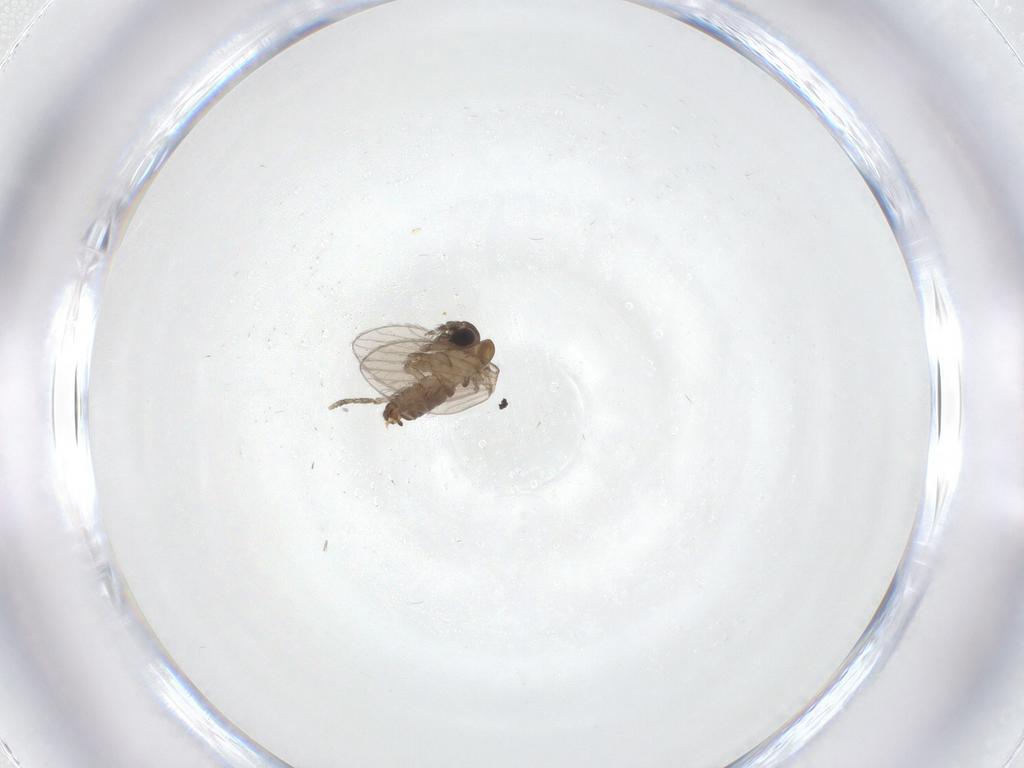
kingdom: Animalia
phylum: Arthropoda
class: Insecta
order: Diptera
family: Psychodidae
